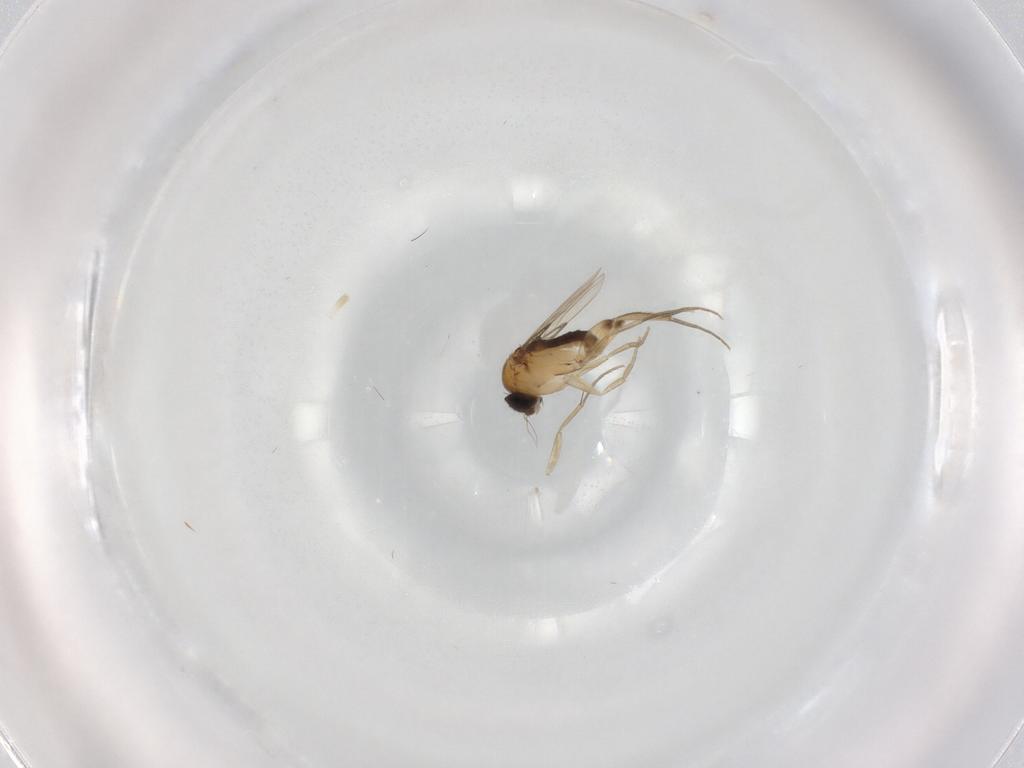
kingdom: Animalia
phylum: Arthropoda
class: Insecta
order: Diptera
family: Phoridae
